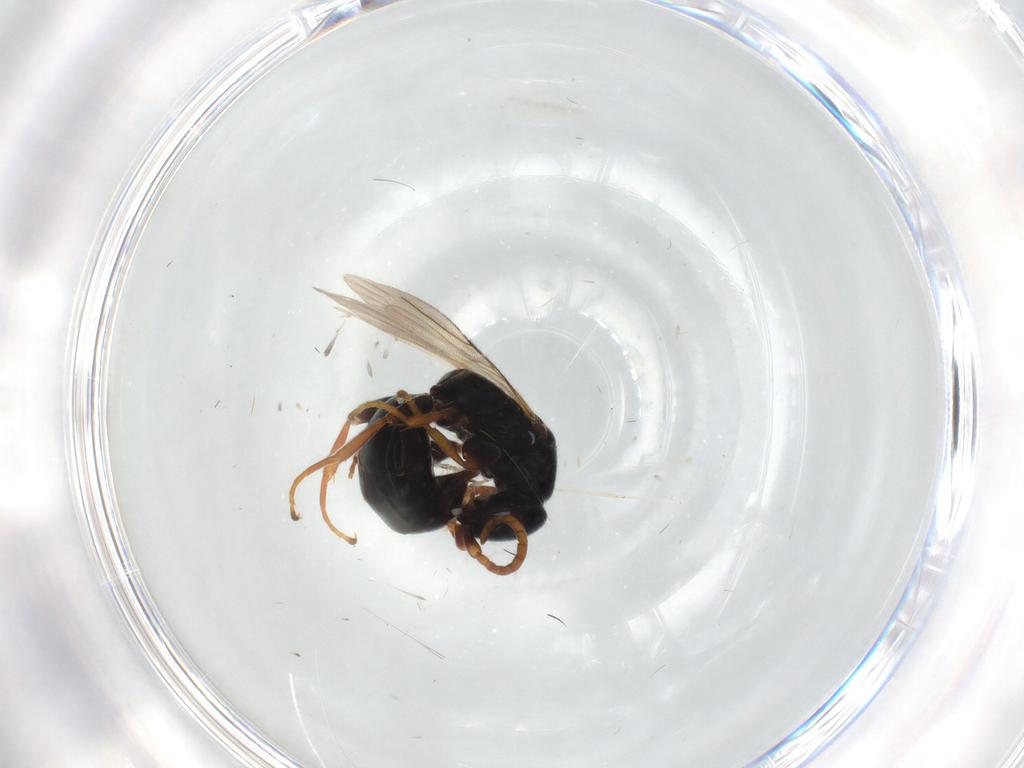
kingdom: Animalia
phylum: Arthropoda
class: Insecta
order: Hymenoptera
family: Bethylidae
